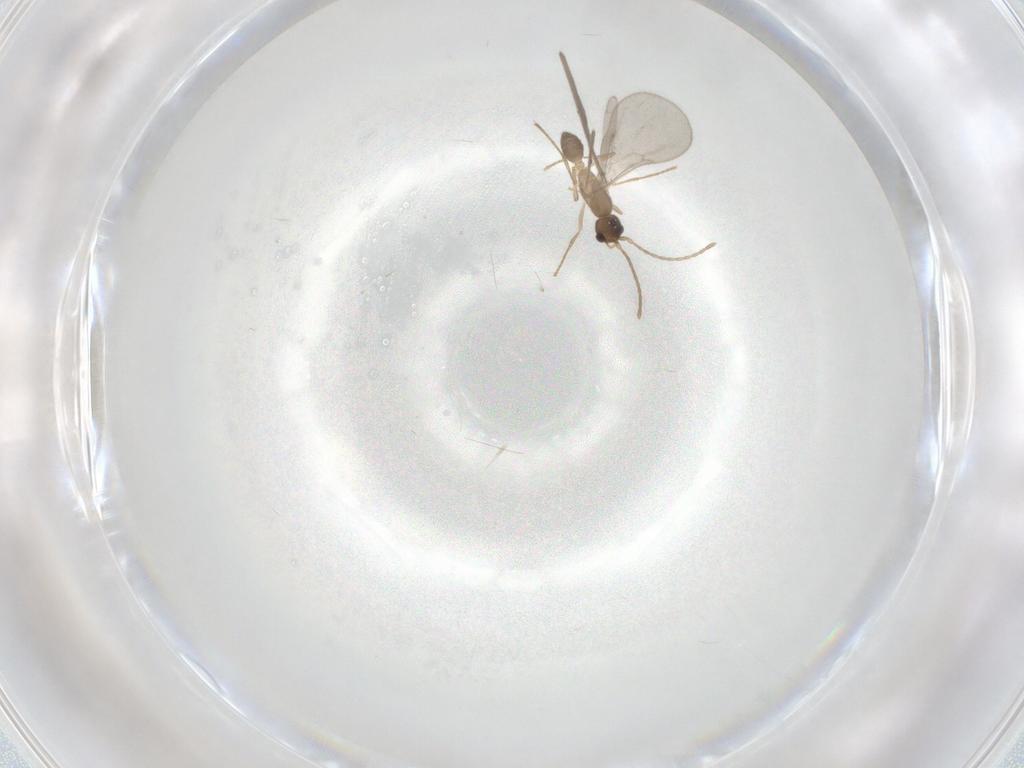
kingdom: Animalia
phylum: Arthropoda
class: Insecta
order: Hymenoptera
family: Formicidae
